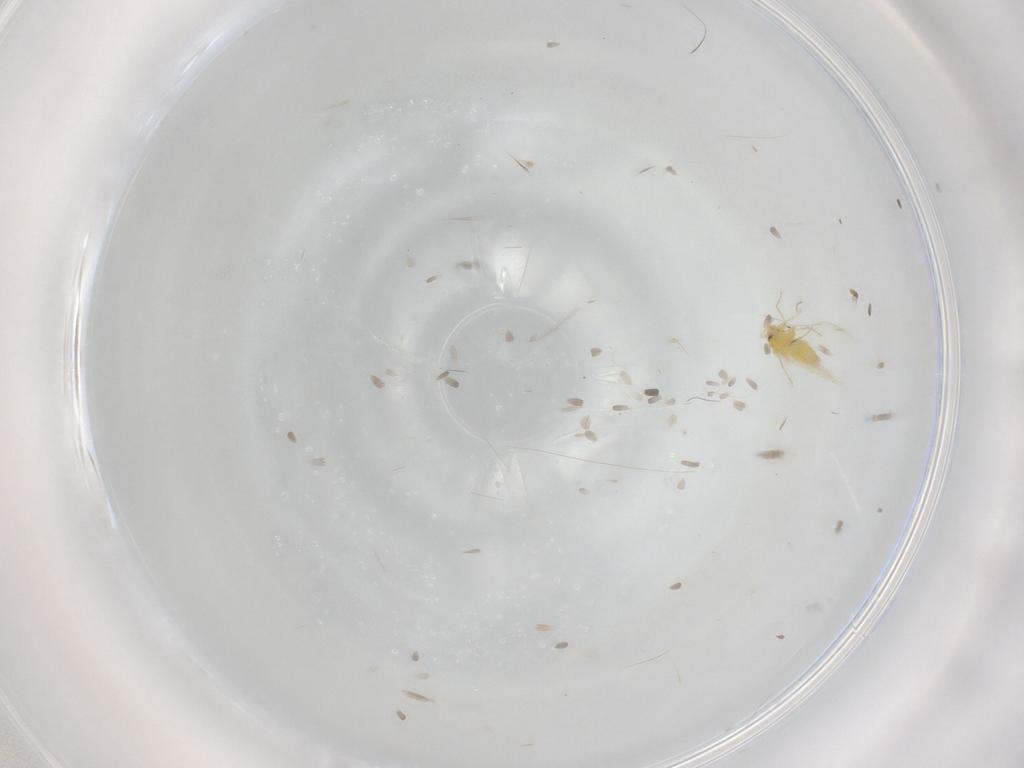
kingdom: Animalia
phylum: Arthropoda
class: Insecta
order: Hemiptera
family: Aleyrodidae
